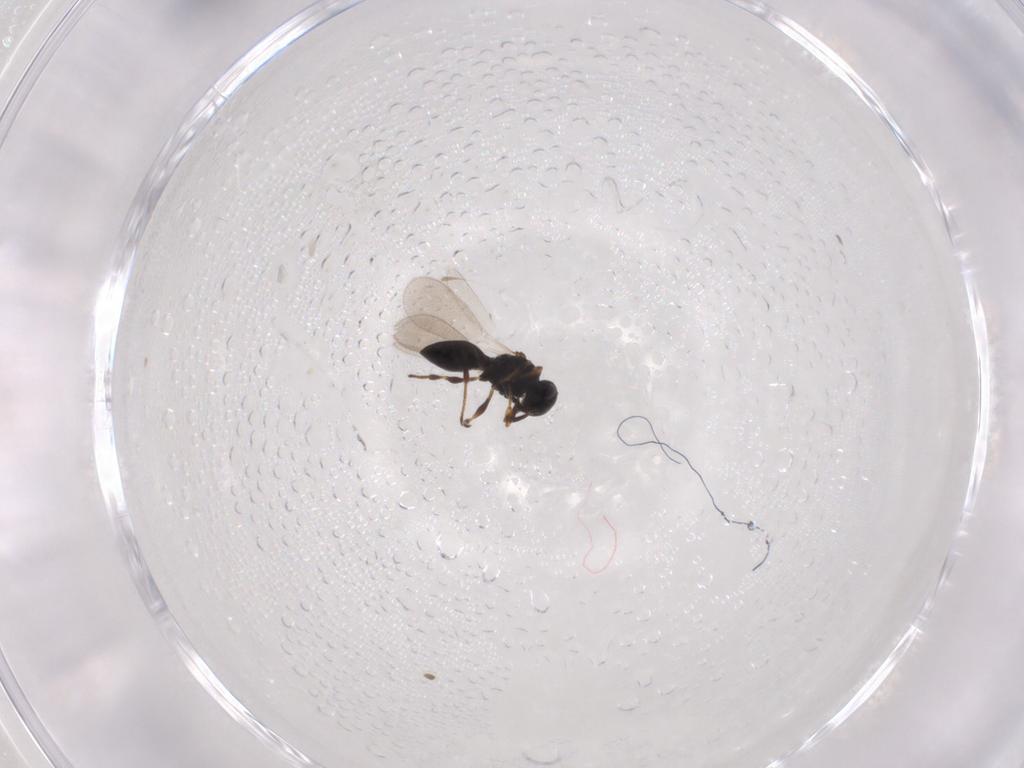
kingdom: Animalia
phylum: Arthropoda
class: Insecta
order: Hymenoptera
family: Platygastridae
